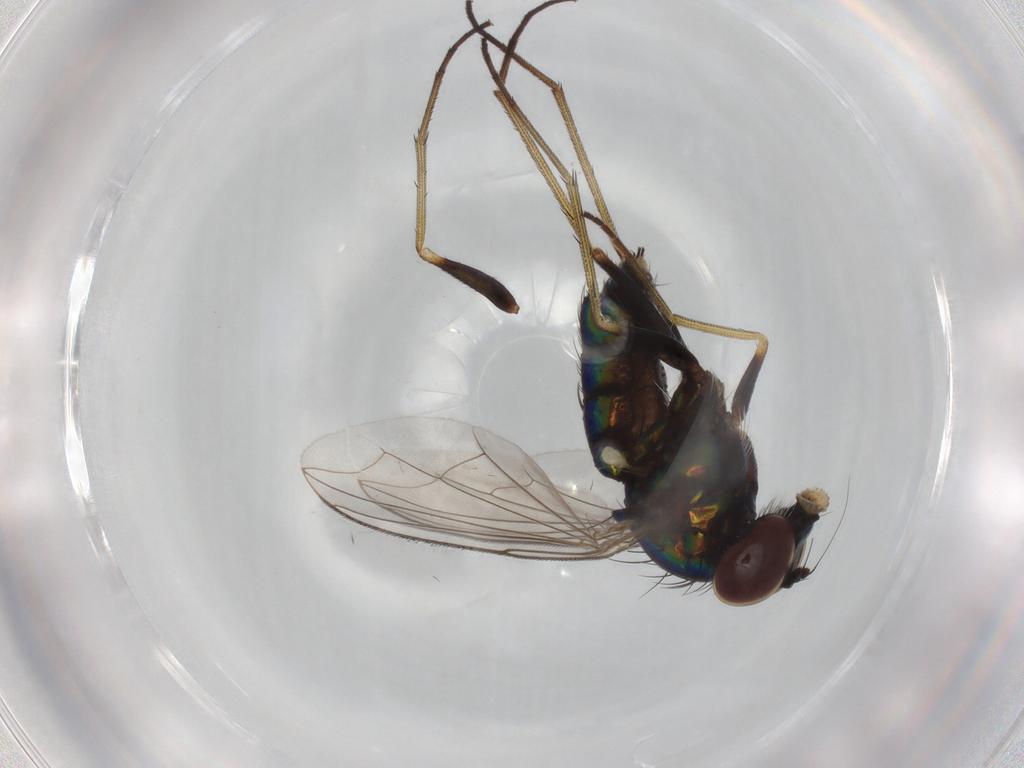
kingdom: Animalia
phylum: Arthropoda
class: Insecta
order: Diptera
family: Dolichopodidae
